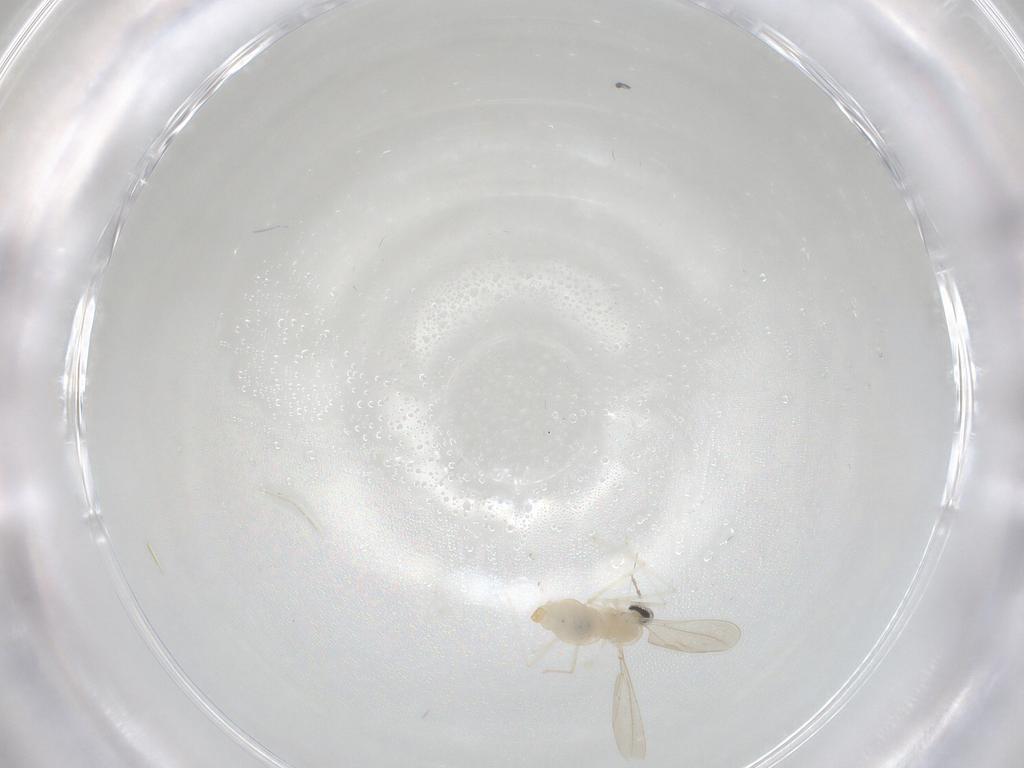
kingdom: Animalia
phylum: Arthropoda
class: Insecta
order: Diptera
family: Cecidomyiidae
